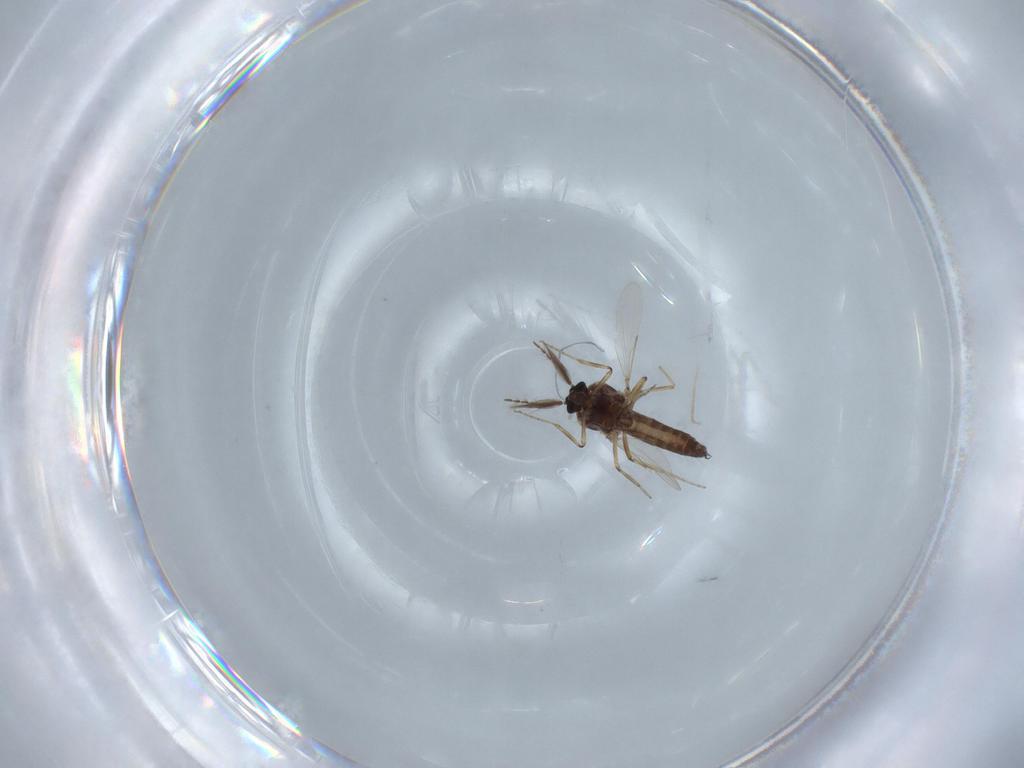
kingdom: Animalia
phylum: Arthropoda
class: Insecta
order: Diptera
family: Ceratopogonidae
